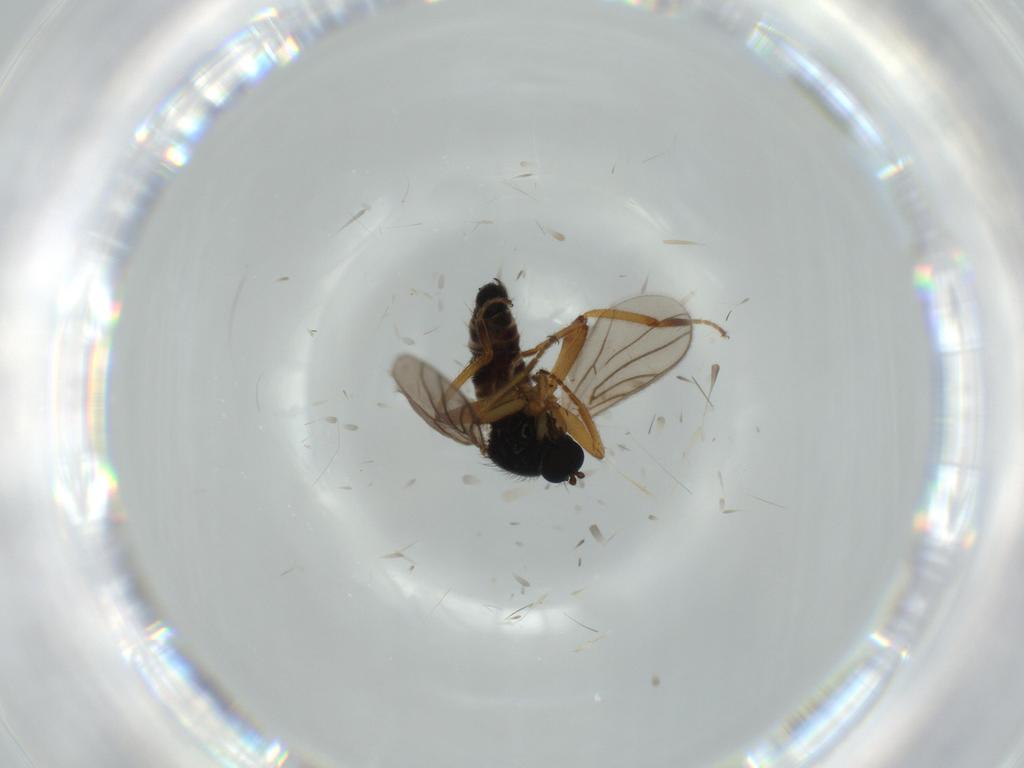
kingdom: Animalia
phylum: Arthropoda
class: Insecta
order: Diptera
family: Hybotidae
